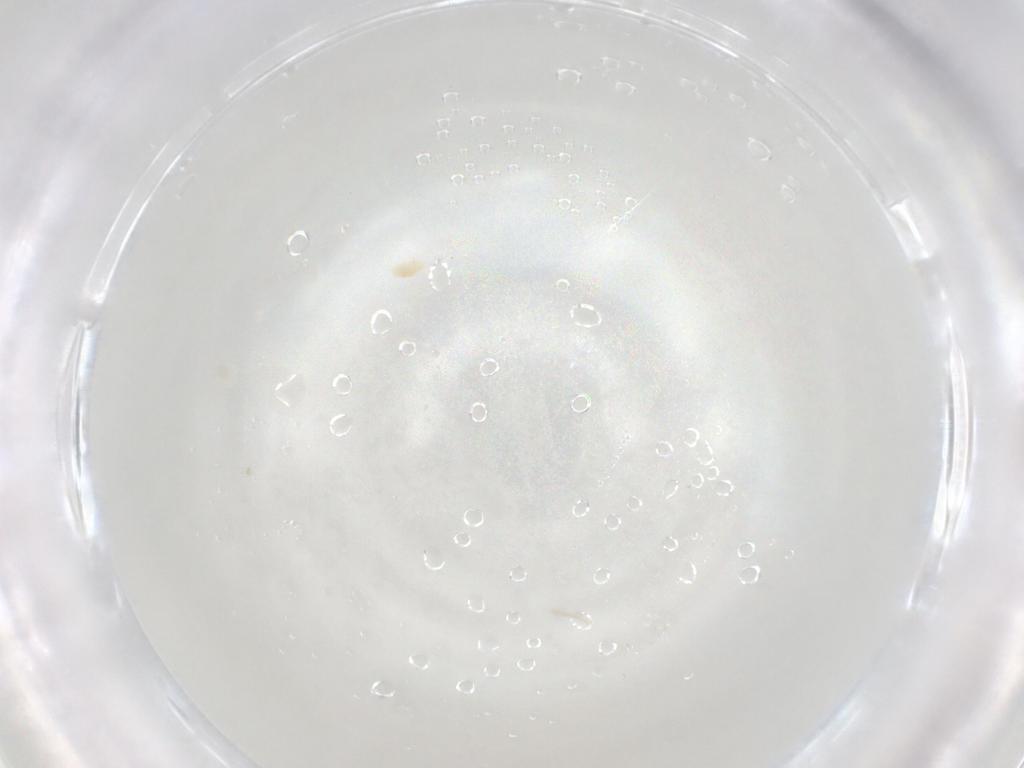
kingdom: Animalia
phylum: Arthropoda
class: Arachnida
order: Trombidiformes
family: Eupodidae
